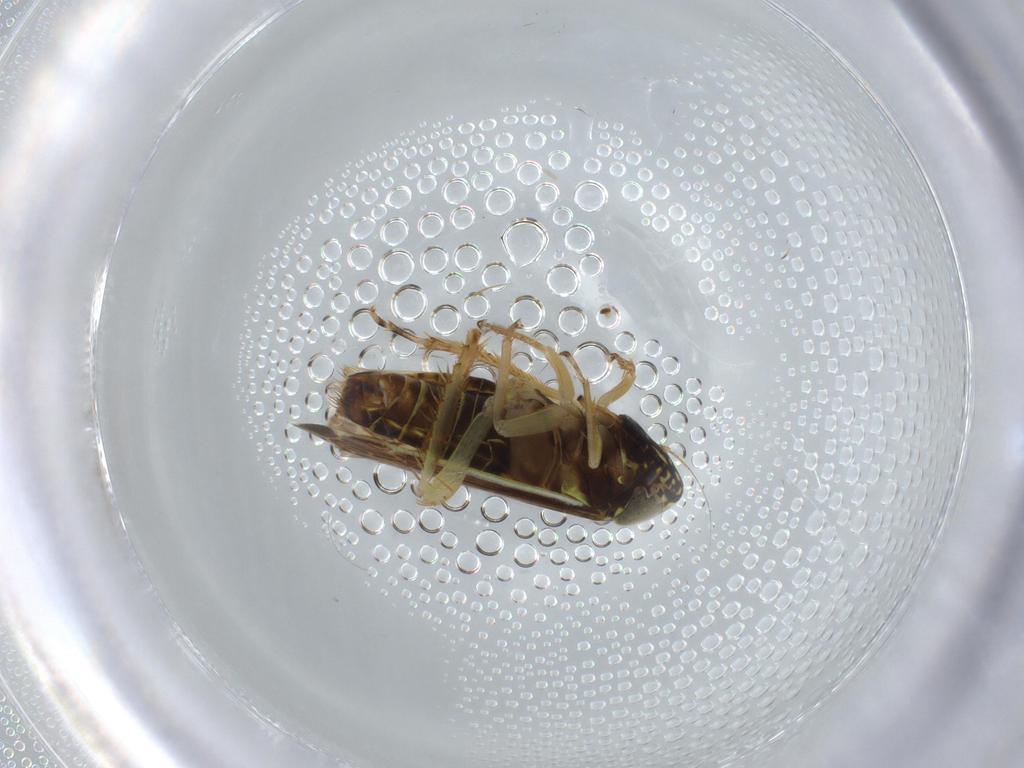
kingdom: Animalia
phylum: Arthropoda
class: Insecta
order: Hemiptera
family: Cicadellidae
